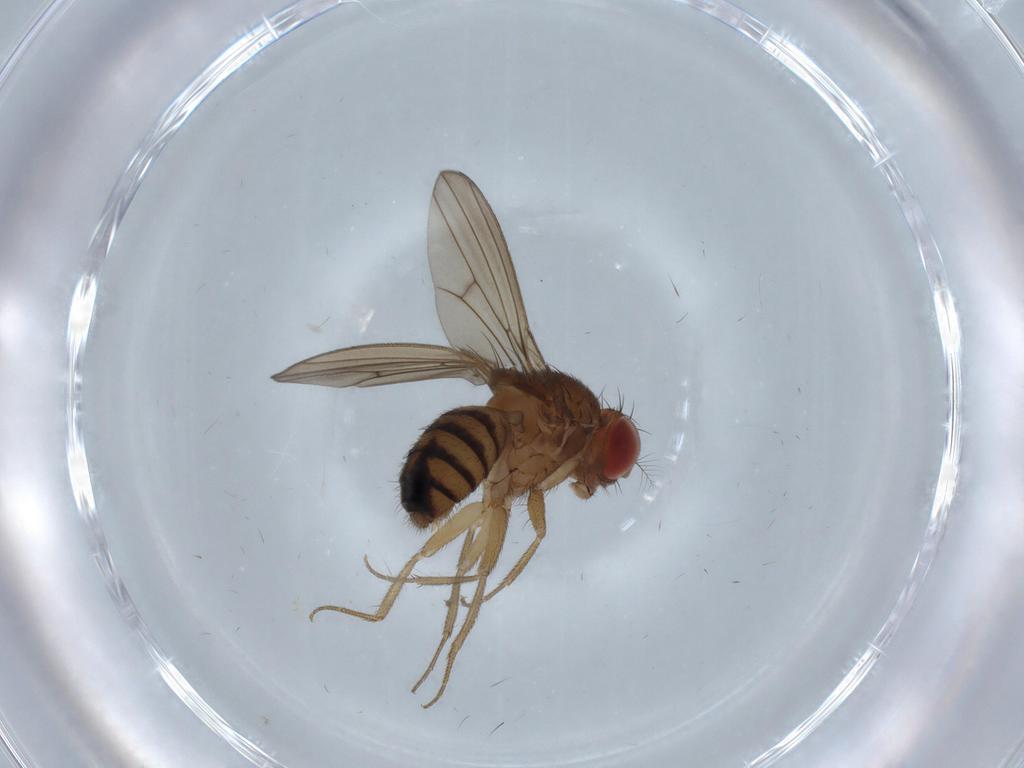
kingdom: Animalia
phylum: Arthropoda
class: Insecta
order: Diptera
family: Drosophilidae
